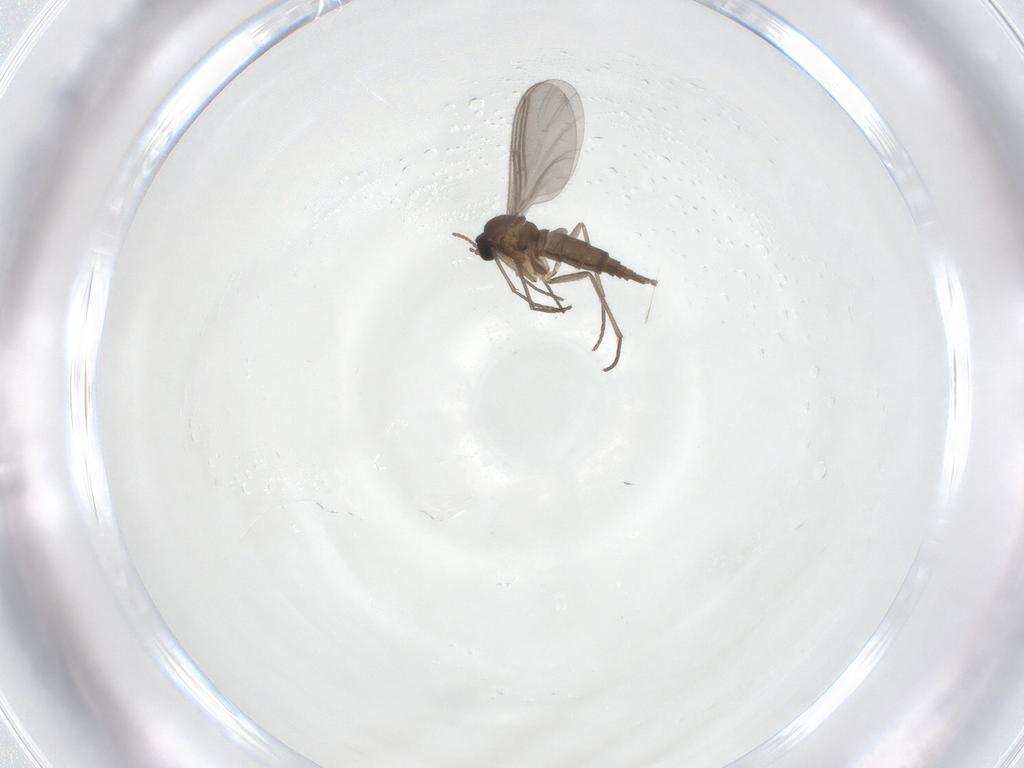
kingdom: Animalia
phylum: Arthropoda
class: Insecta
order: Diptera
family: Sciaridae
